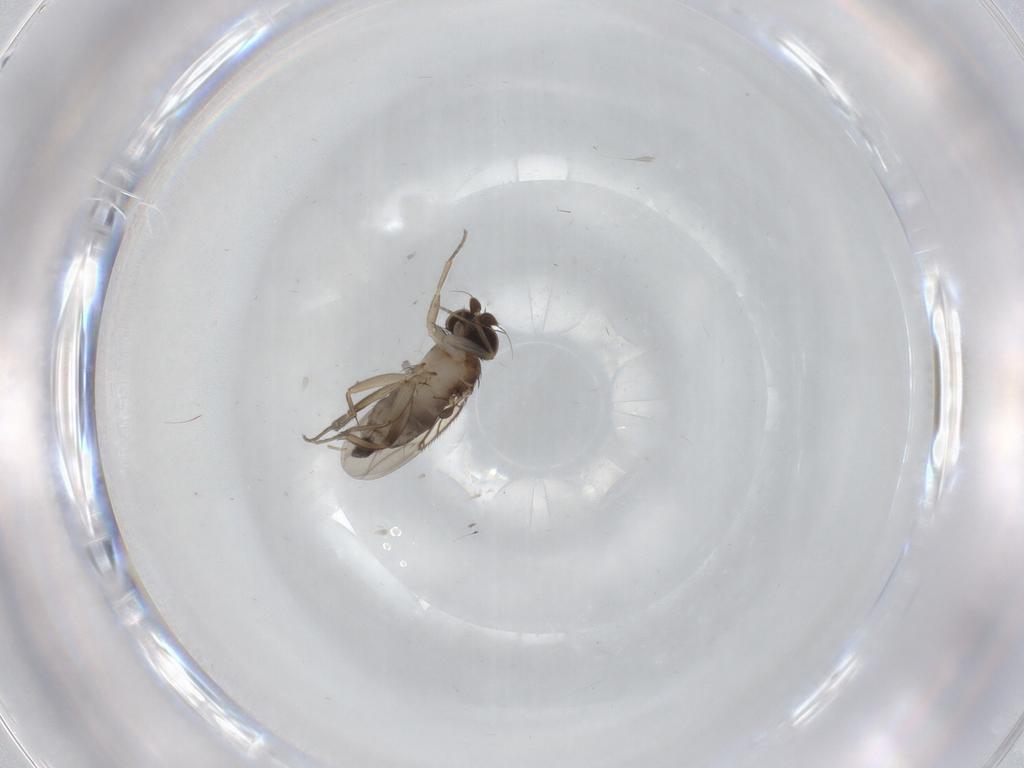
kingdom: Animalia
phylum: Arthropoda
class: Insecta
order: Diptera
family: Phoridae
